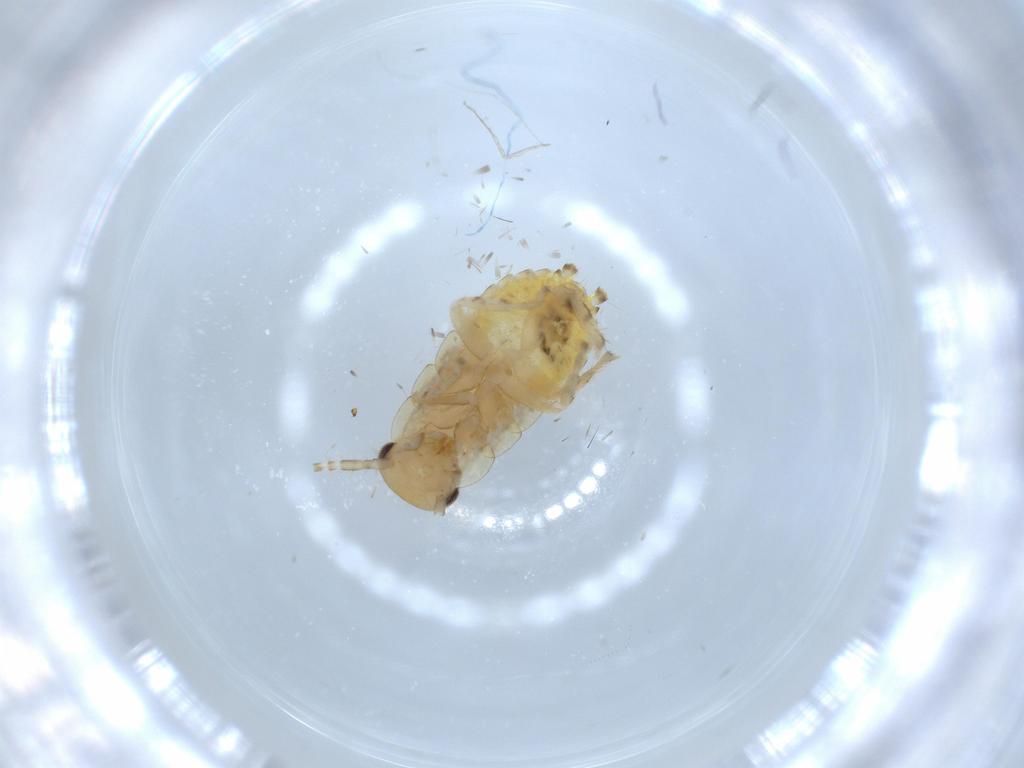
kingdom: Animalia
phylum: Arthropoda
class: Insecta
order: Blattodea
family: Ectobiidae
